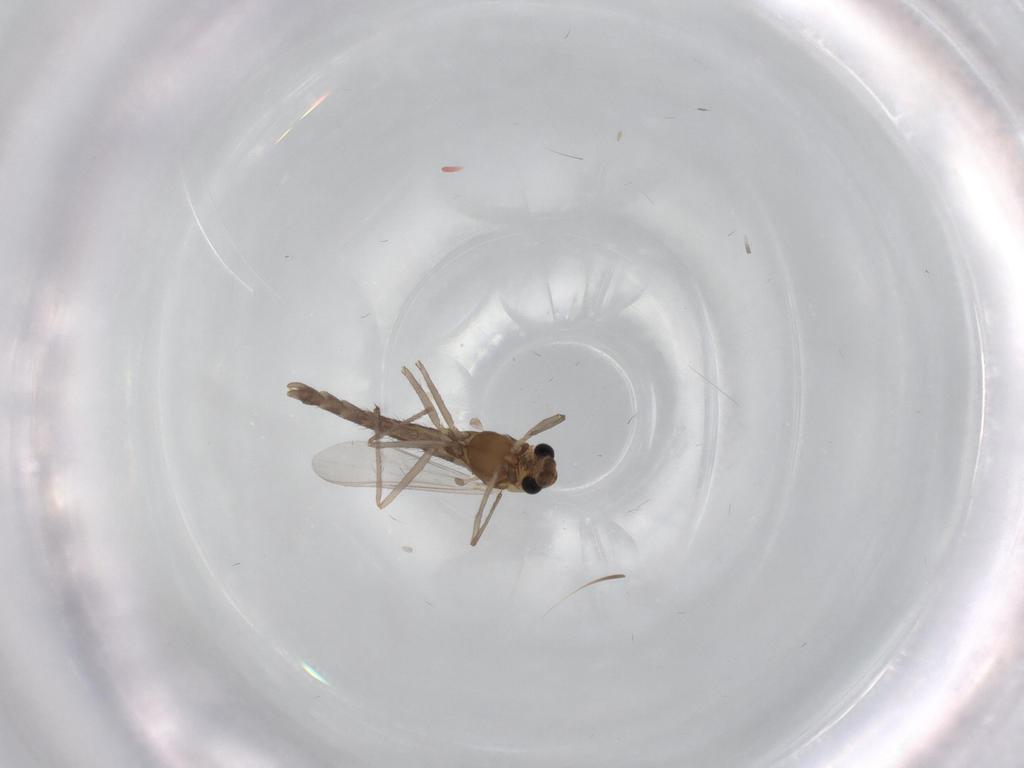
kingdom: Animalia
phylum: Arthropoda
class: Insecta
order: Diptera
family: Chironomidae
